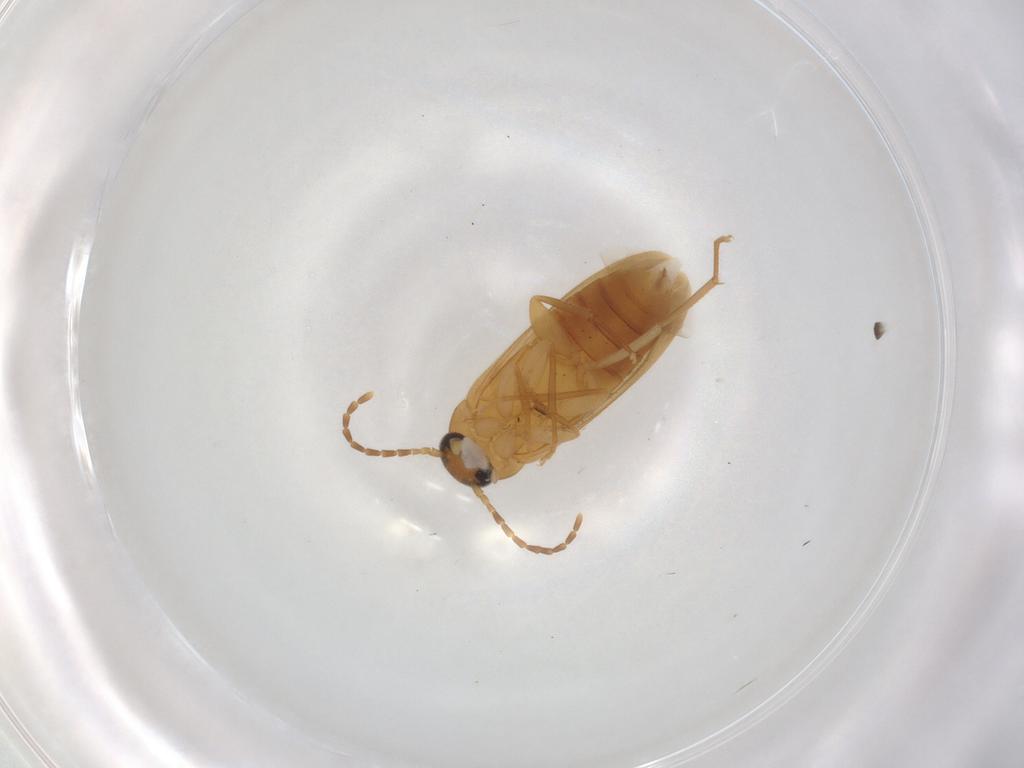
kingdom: Animalia
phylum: Arthropoda
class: Insecta
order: Coleoptera
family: Scraptiidae
